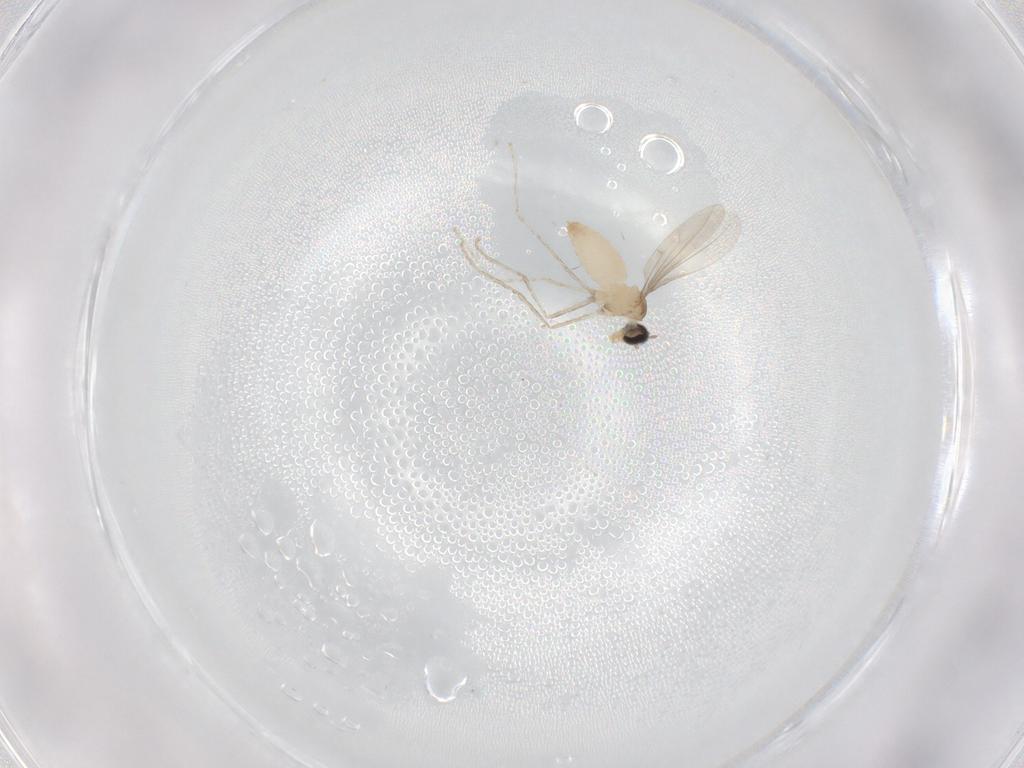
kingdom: Animalia
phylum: Arthropoda
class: Insecta
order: Diptera
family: Cecidomyiidae
